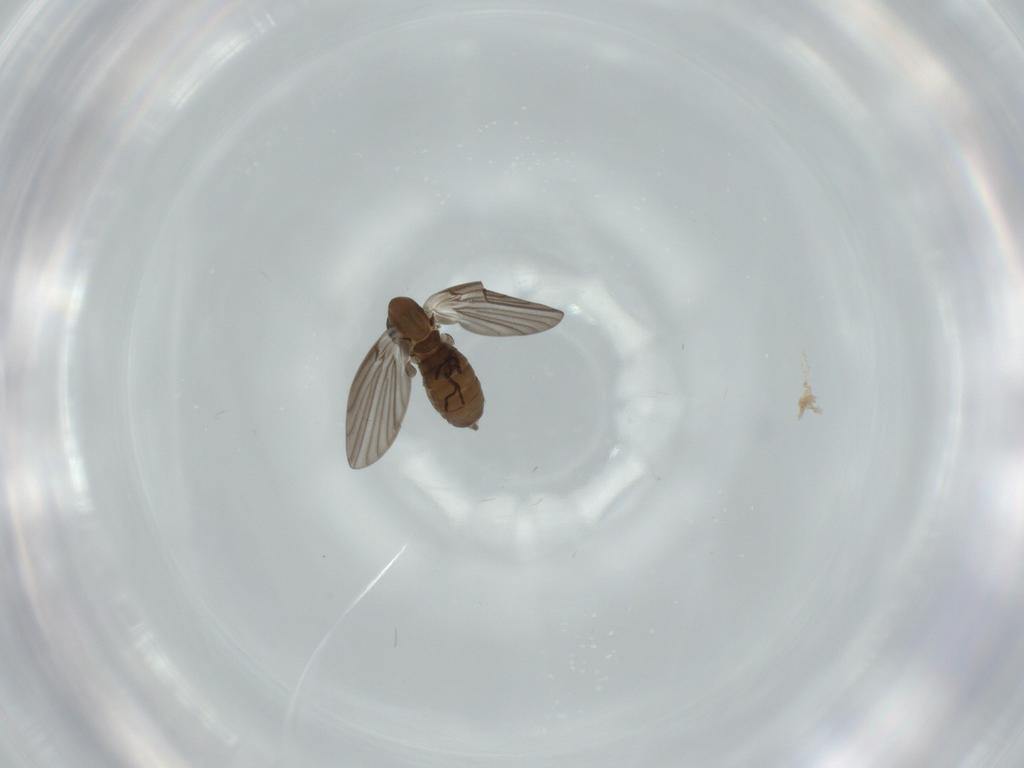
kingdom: Animalia
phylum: Arthropoda
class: Insecta
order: Diptera
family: Psychodidae
